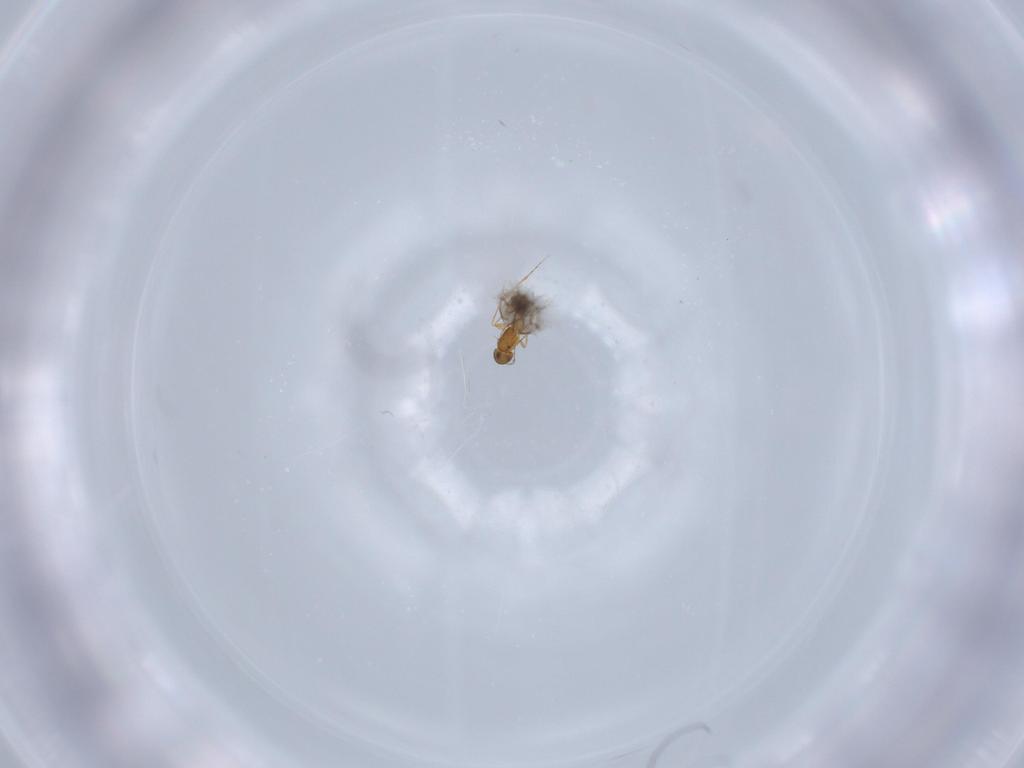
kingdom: Animalia
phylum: Arthropoda
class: Insecta
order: Hymenoptera
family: Mymarommatidae
